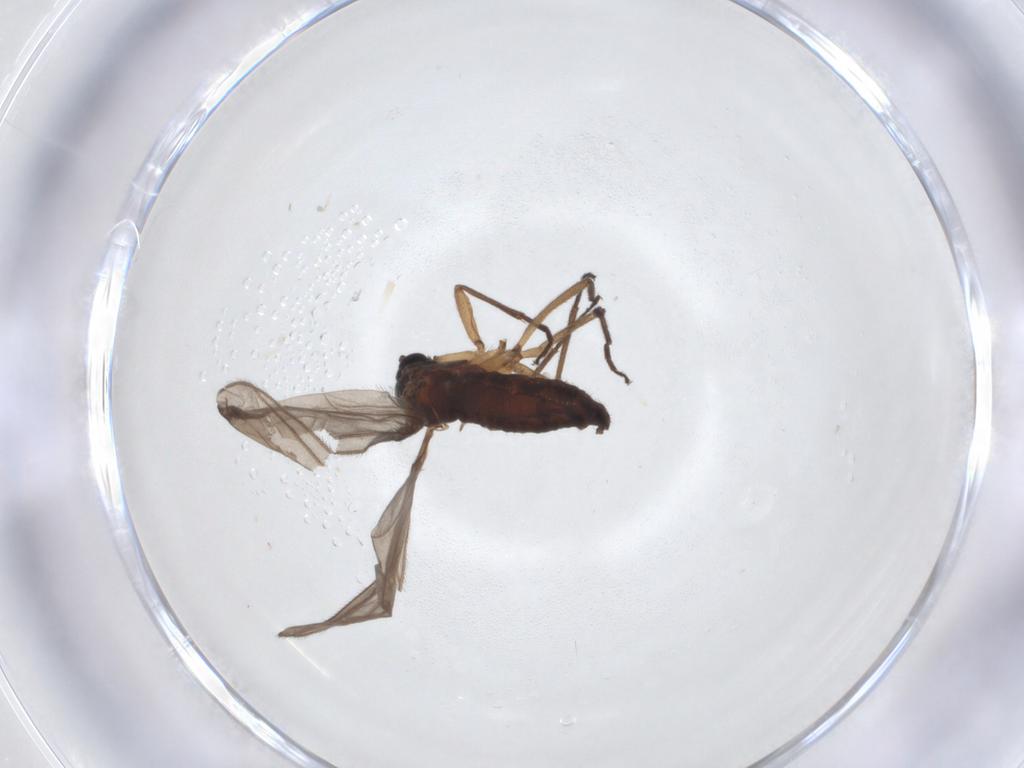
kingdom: Animalia
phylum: Arthropoda
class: Insecta
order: Diptera
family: Sciaridae
